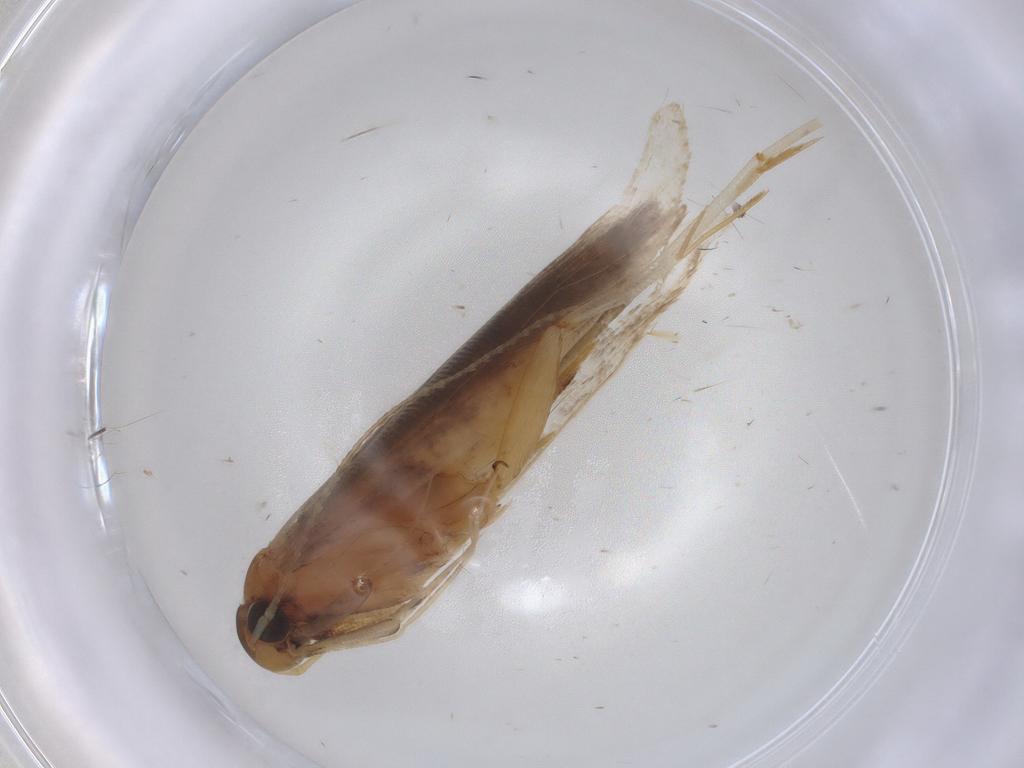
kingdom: Animalia
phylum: Arthropoda
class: Insecta
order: Lepidoptera
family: Gelechiidae
